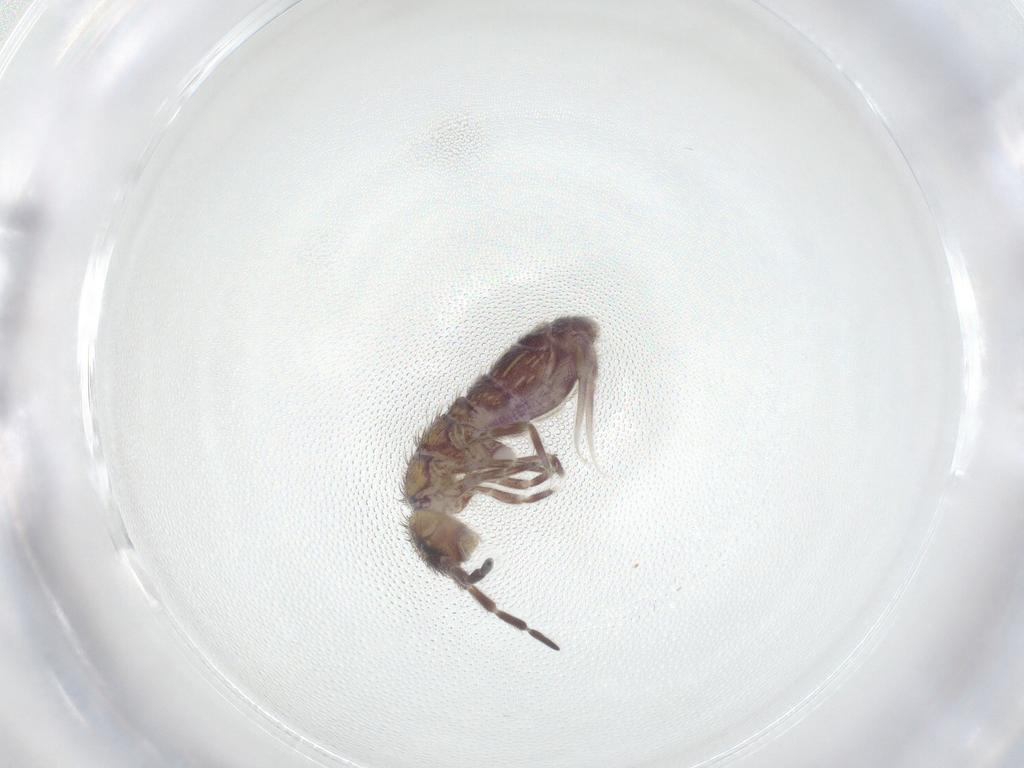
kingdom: Animalia
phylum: Arthropoda
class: Collembola
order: Entomobryomorpha
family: Isotomidae
